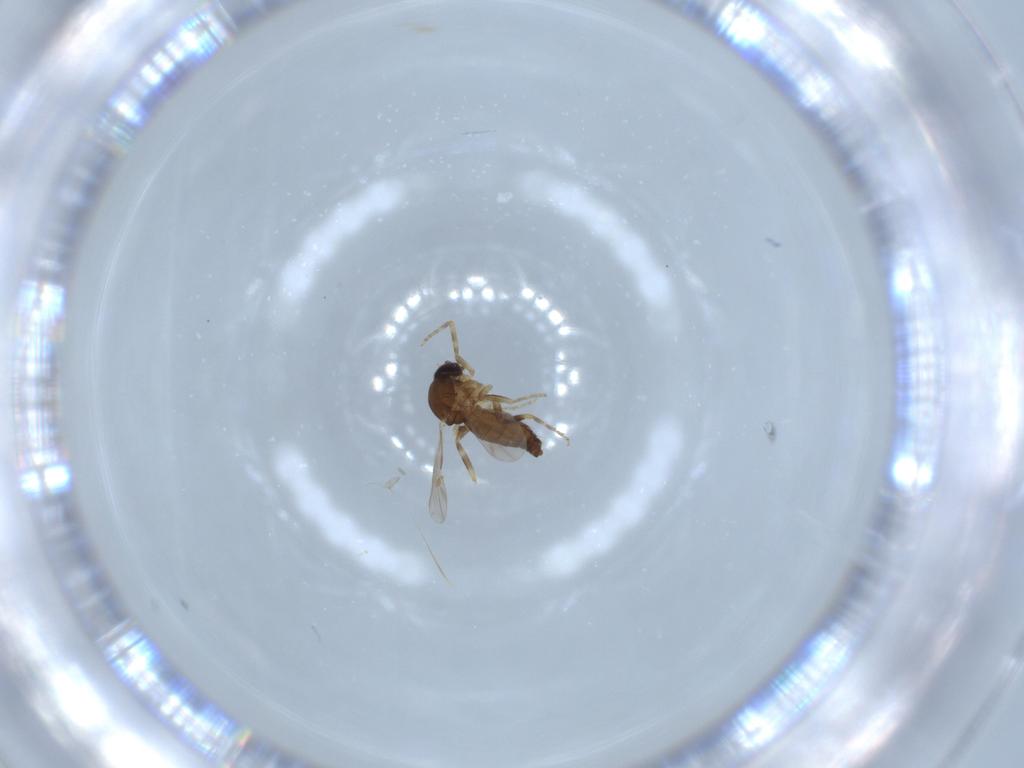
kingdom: Animalia
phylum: Arthropoda
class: Insecta
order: Diptera
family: Ceratopogonidae
